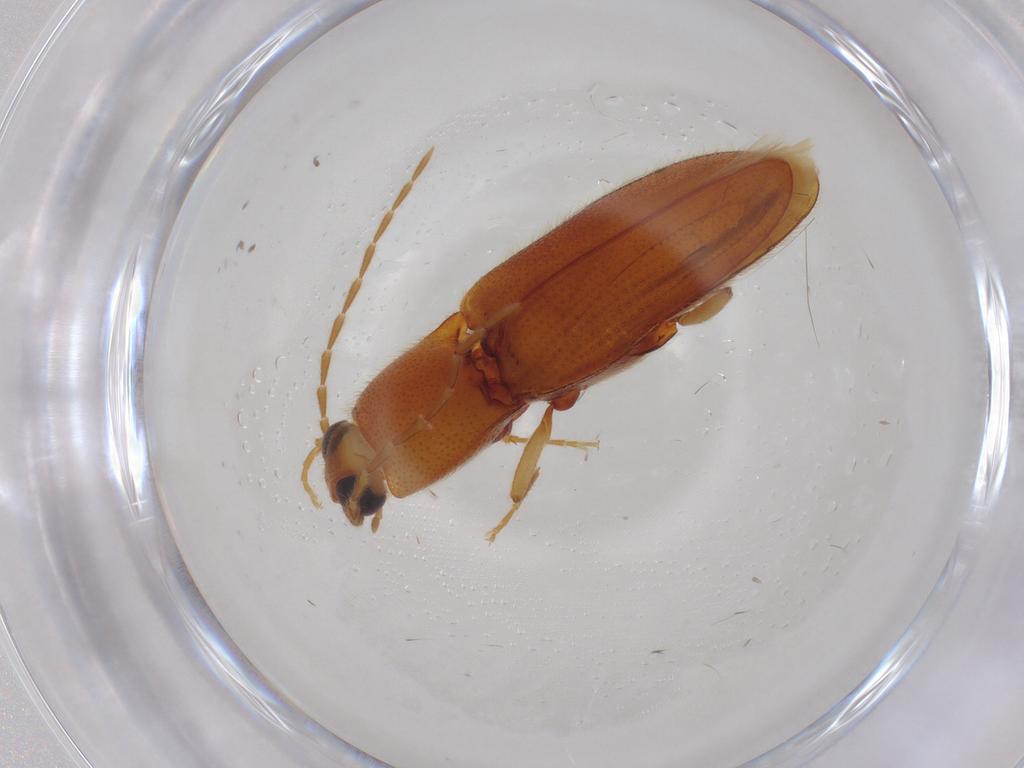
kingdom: Animalia
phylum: Arthropoda
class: Insecta
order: Coleoptera
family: Elateridae
